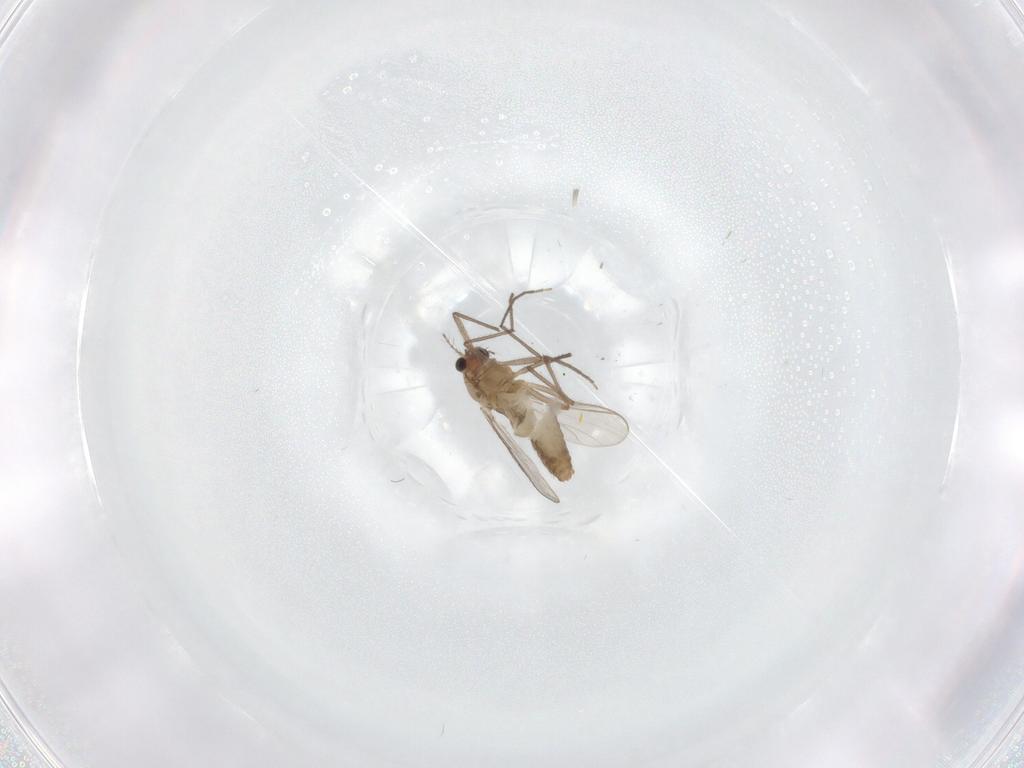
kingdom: Animalia
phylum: Arthropoda
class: Insecta
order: Diptera
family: Chironomidae
